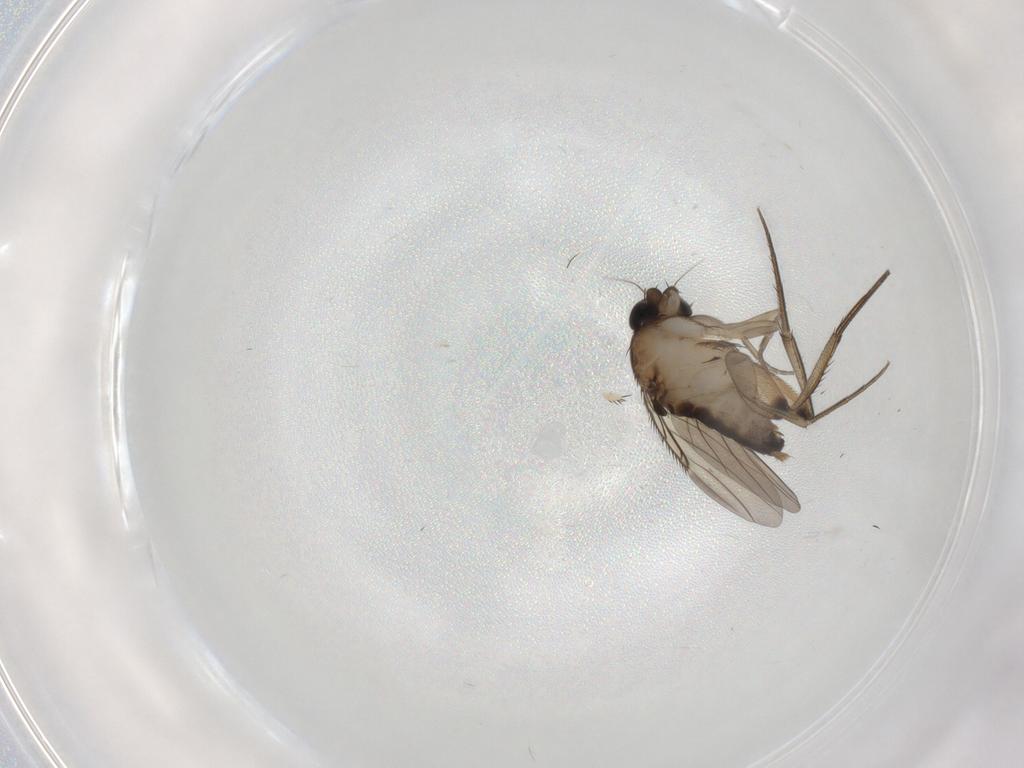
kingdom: Animalia
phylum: Arthropoda
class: Insecta
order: Diptera
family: Phoridae
